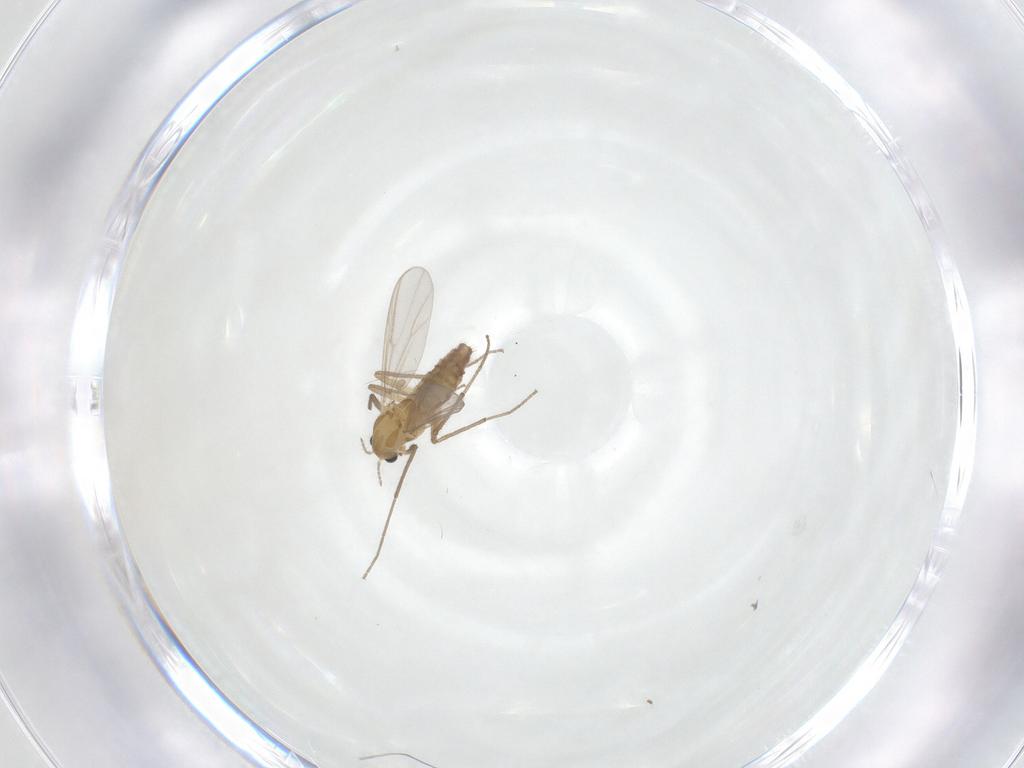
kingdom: Animalia
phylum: Arthropoda
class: Insecta
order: Diptera
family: Chironomidae
